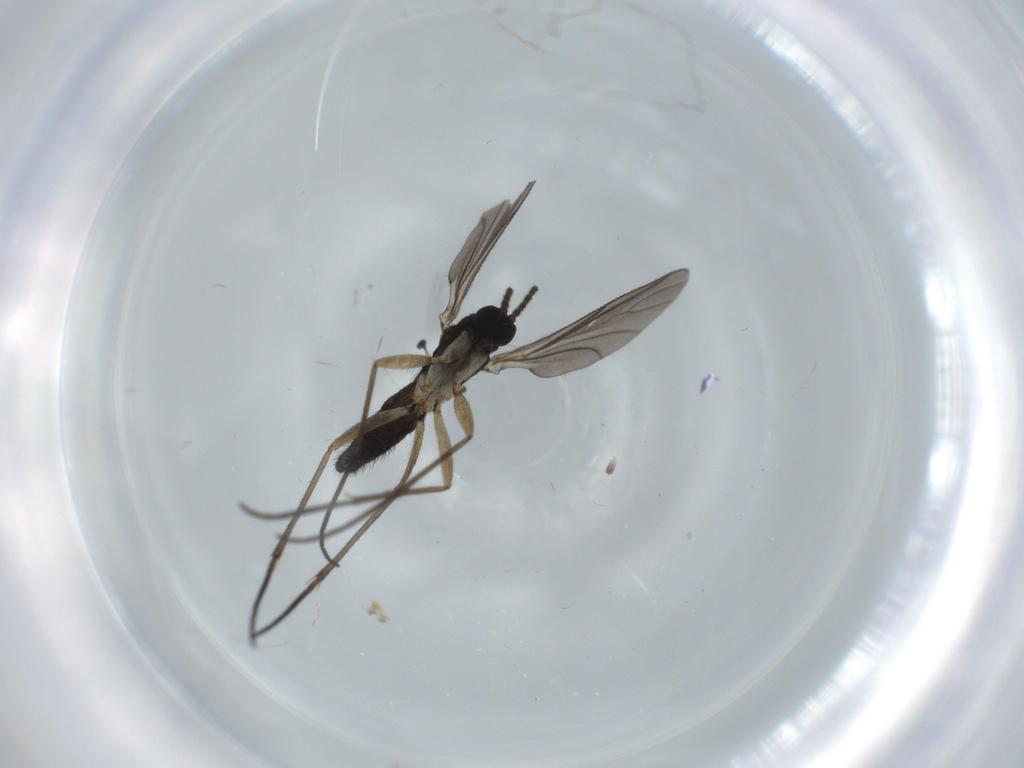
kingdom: Animalia
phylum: Arthropoda
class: Insecta
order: Diptera
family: Sciaridae
